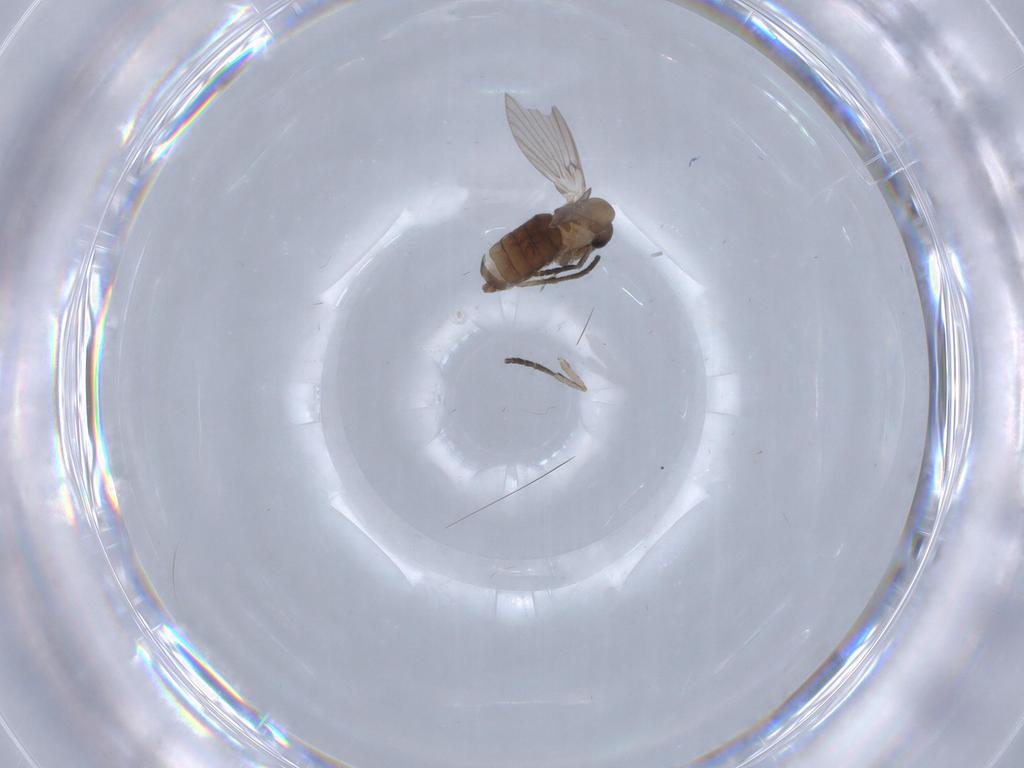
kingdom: Animalia
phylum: Arthropoda
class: Insecta
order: Diptera
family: Psychodidae
